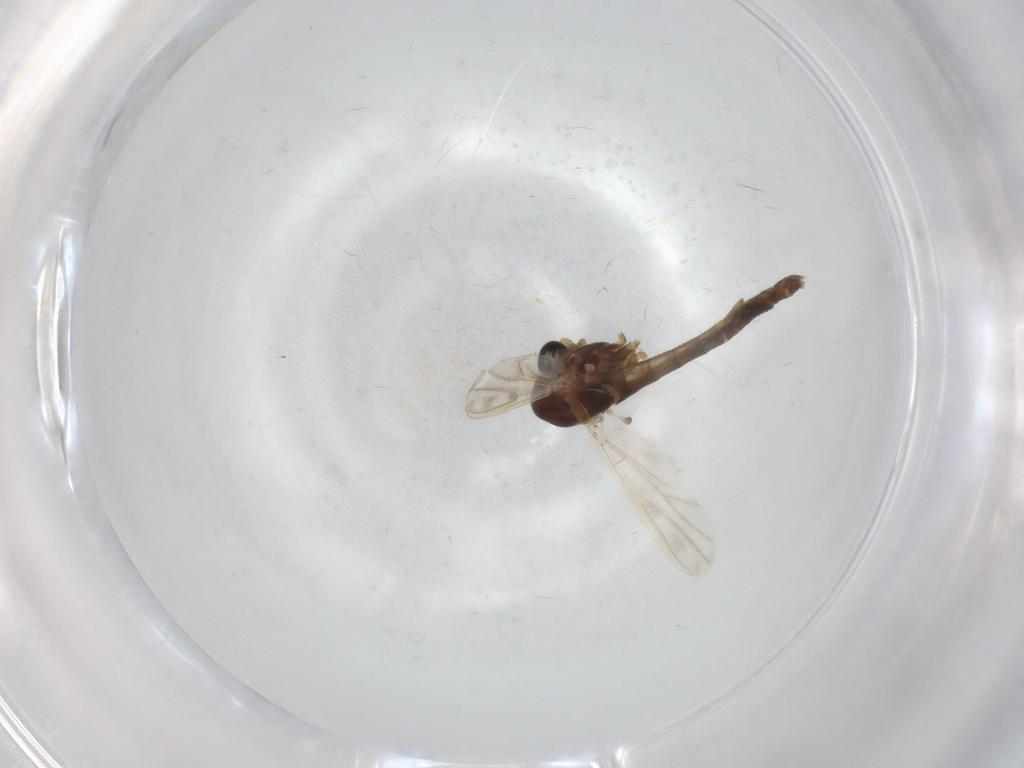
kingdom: Animalia
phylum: Arthropoda
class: Insecta
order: Diptera
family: Chironomidae
